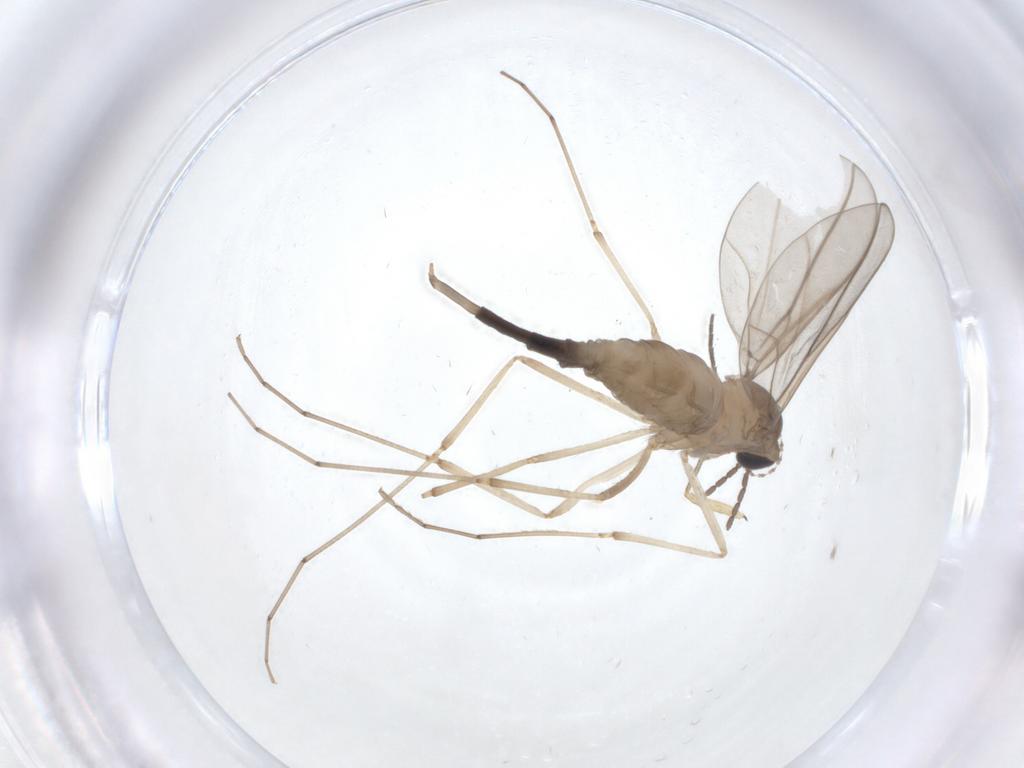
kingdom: Animalia
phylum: Arthropoda
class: Insecta
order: Diptera
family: Cecidomyiidae
